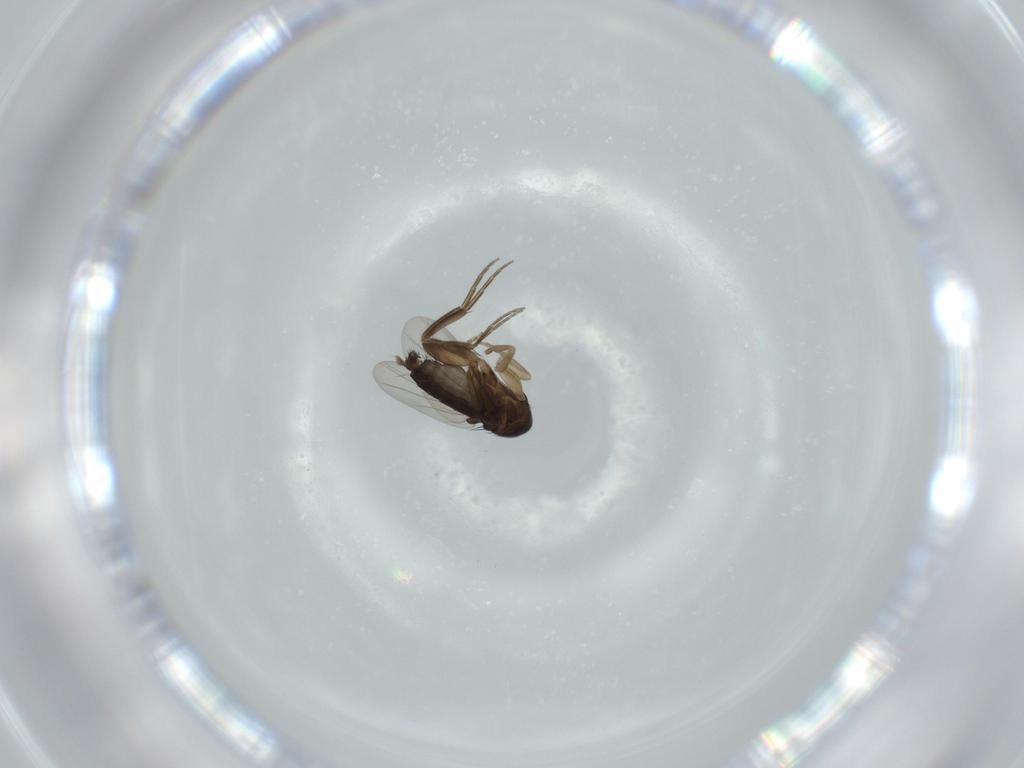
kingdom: Animalia
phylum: Arthropoda
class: Insecta
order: Diptera
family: Phoridae
